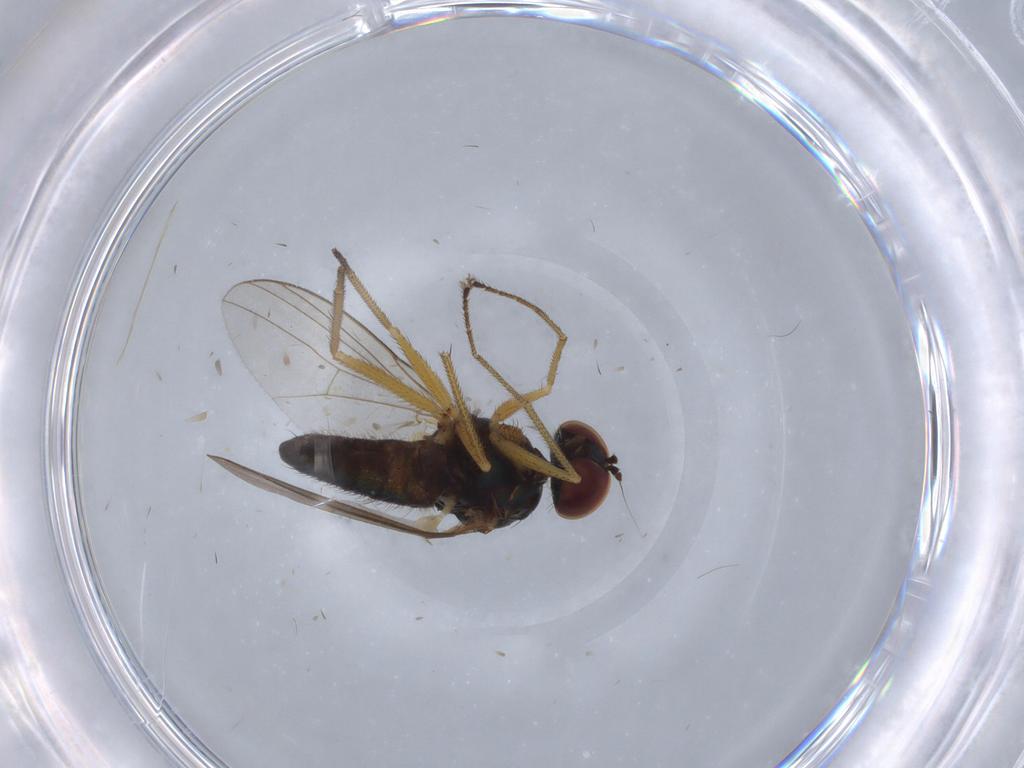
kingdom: Animalia
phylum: Arthropoda
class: Insecta
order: Diptera
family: Dolichopodidae
